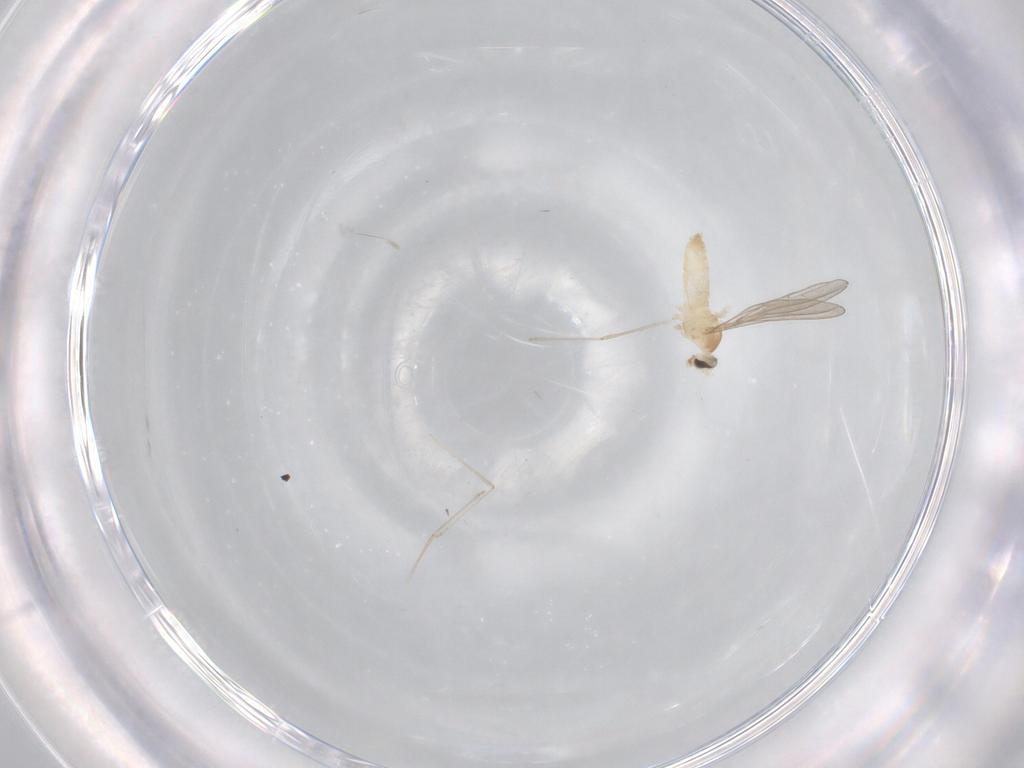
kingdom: Animalia
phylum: Arthropoda
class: Insecta
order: Diptera
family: Cecidomyiidae
